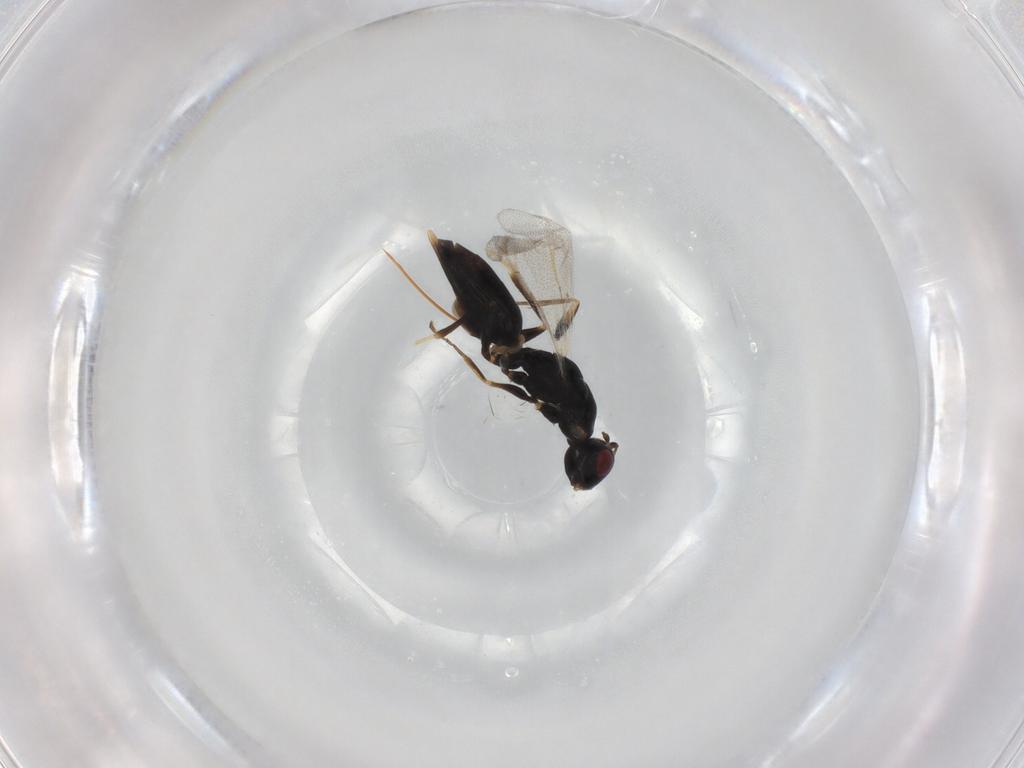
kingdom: Animalia
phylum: Arthropoda
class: Insecta
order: Hymenoptera
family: Eurytomidae
